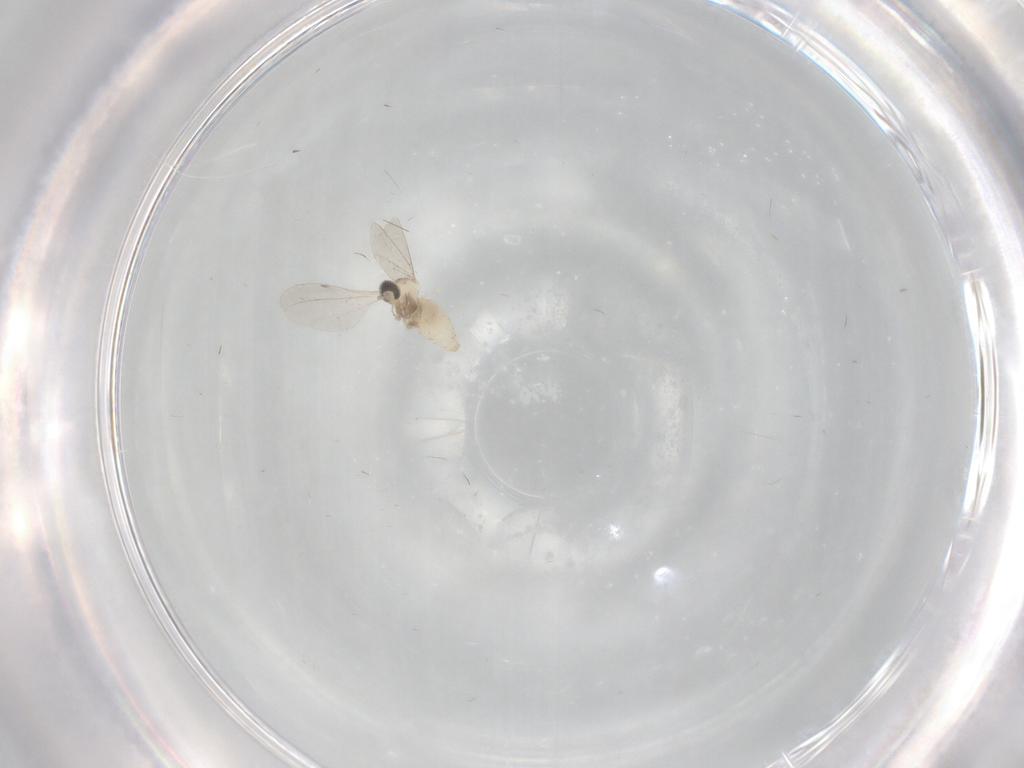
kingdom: Animalia
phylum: Arthropoda
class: Insecta
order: Diptera
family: Cecidomyiidae
